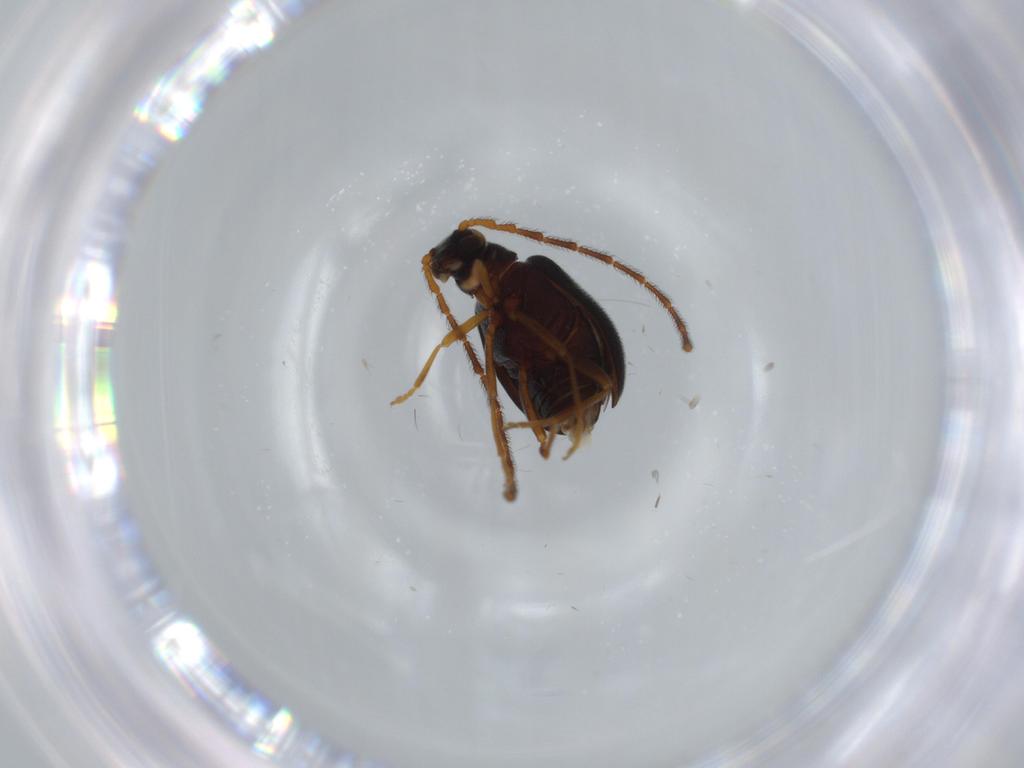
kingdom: Animalia
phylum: Arthropoda
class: Insecta
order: Coleoptera
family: Aderidae
